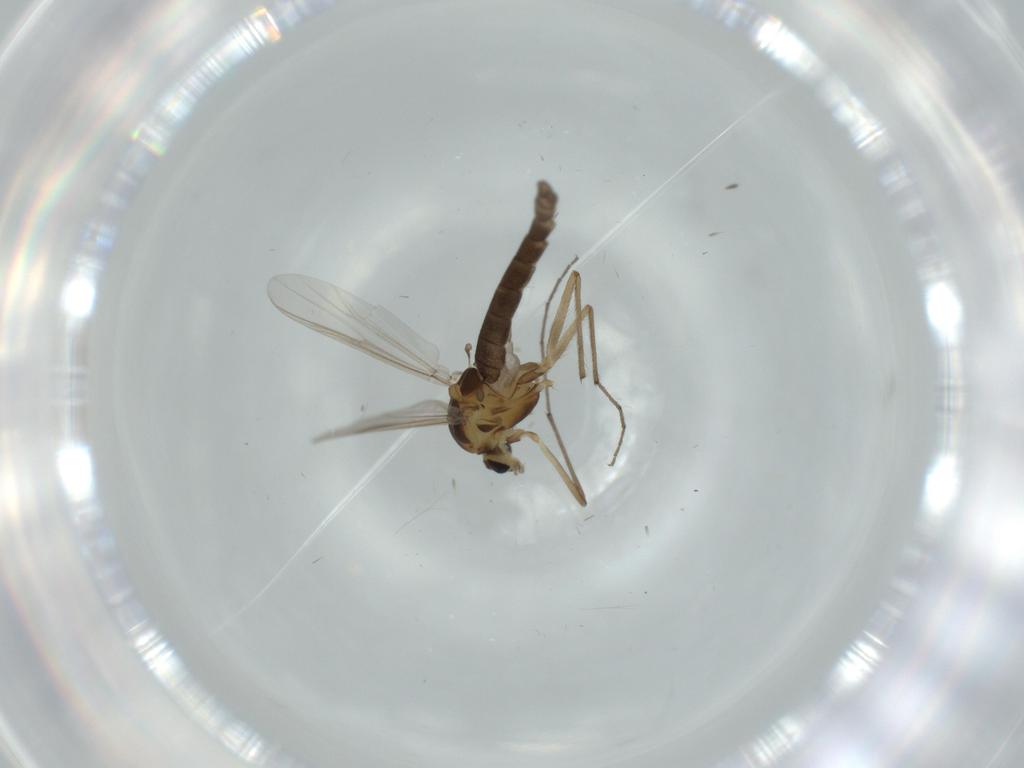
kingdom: Animalia
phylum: Arthropoda
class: Insecta
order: Diptera
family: Chironomidae
